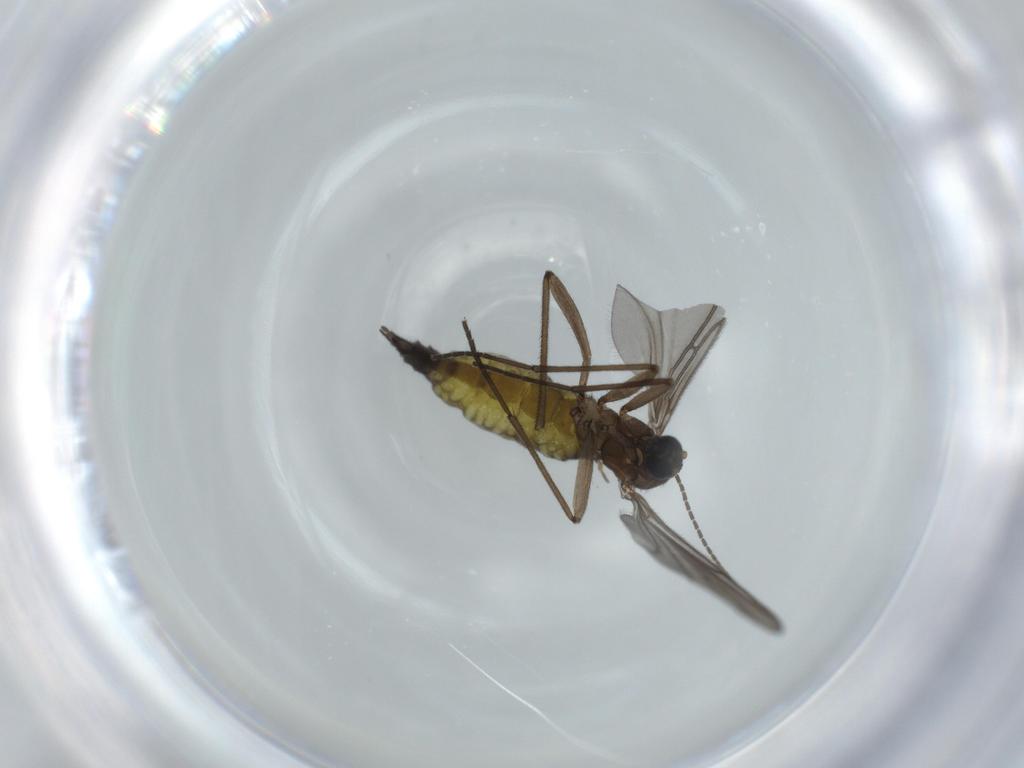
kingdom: Animalia
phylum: Arthropoda
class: Insecta
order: Diptera
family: Sciaridae
